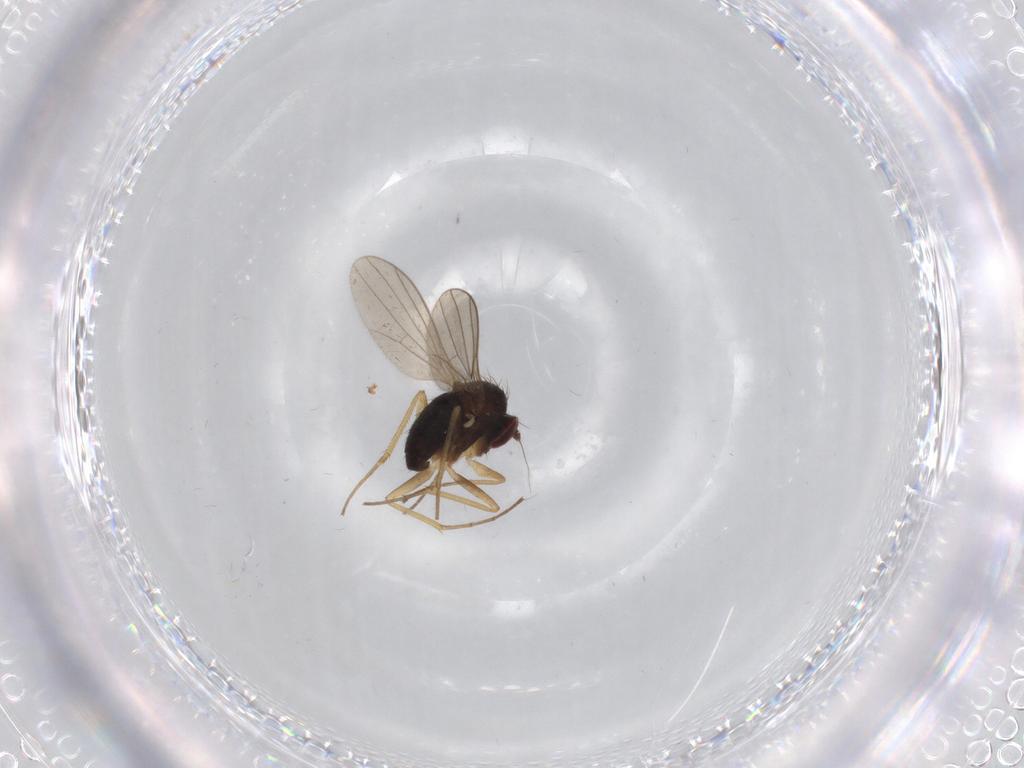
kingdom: Animalia
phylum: Arthropoda
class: Insecta
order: Diptera
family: Dolichopodidae
